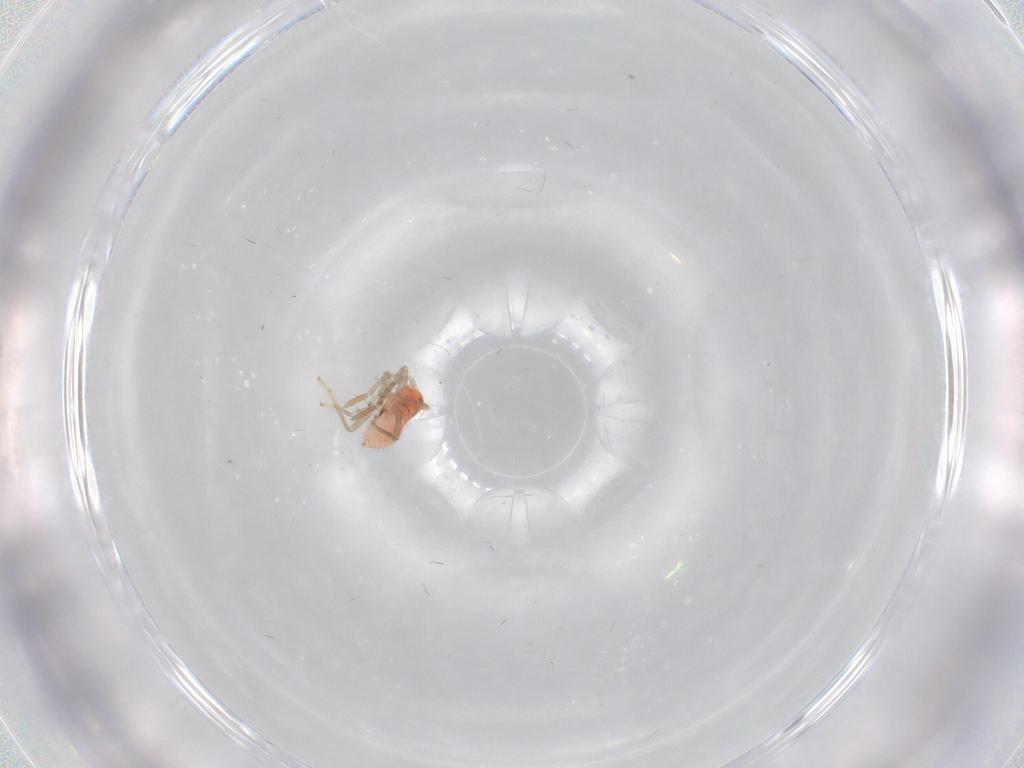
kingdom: Animalia
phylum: Arthropoda
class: Insecta
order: Hemiptera
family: Miridae
